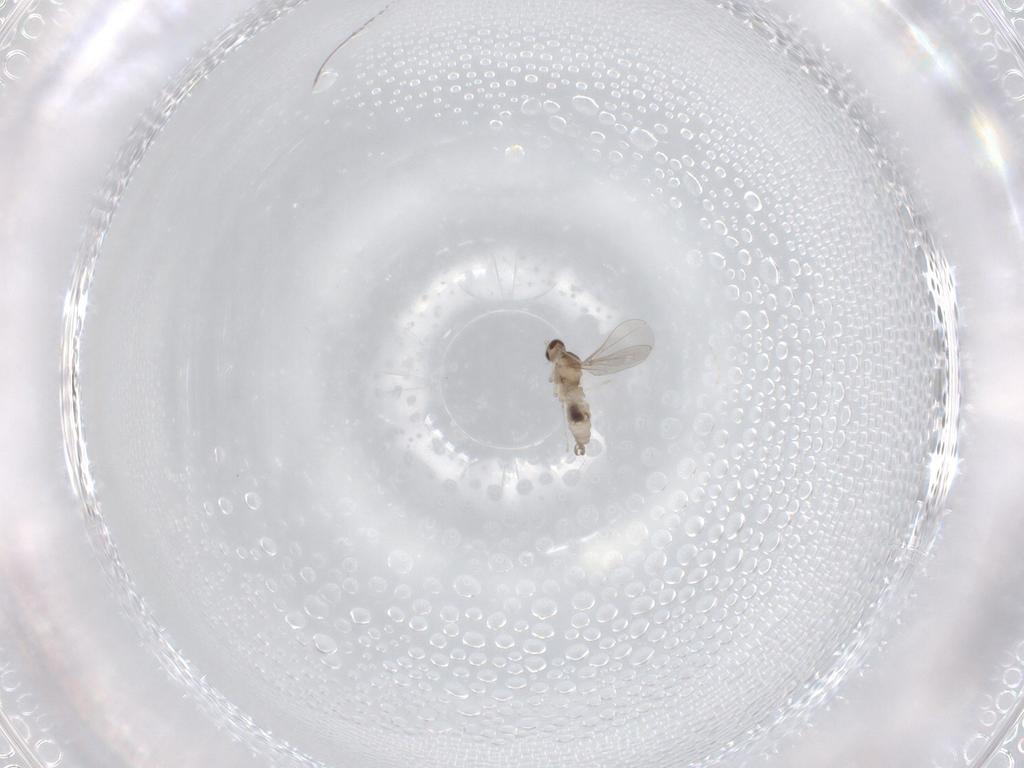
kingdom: Animalia
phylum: Arthropoda
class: Insecta
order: Diptera
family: Cecidomyiidae
